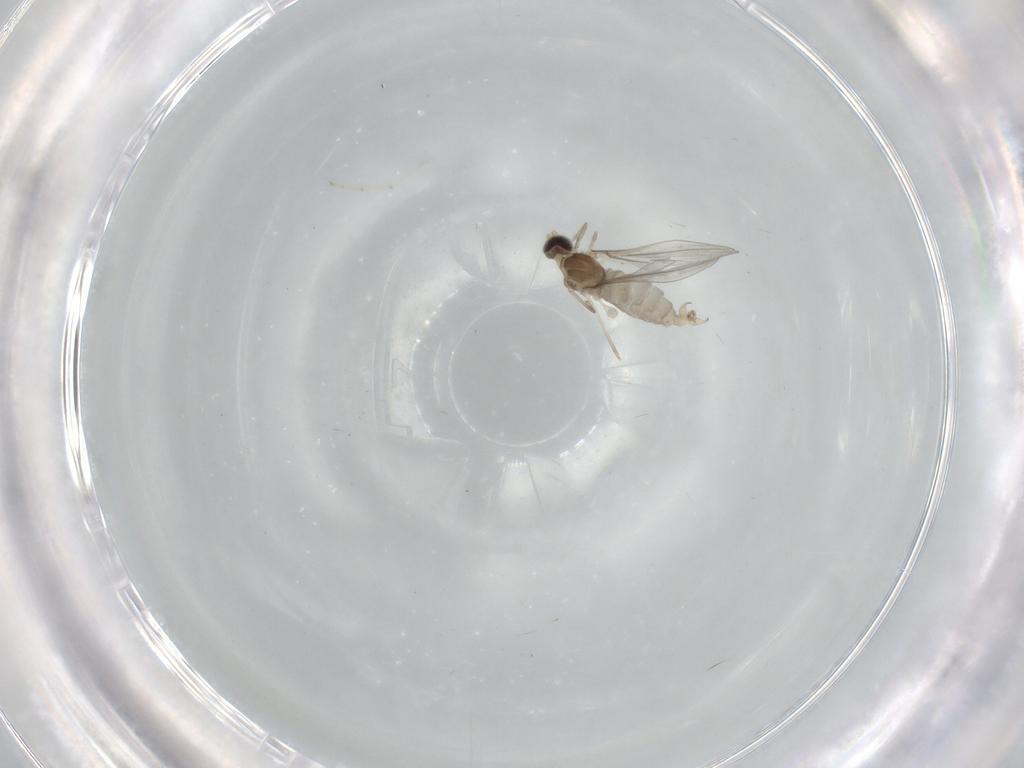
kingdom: Animalia
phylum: Arthropoda
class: Insecta
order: Diptera
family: Cecidomyiidae
